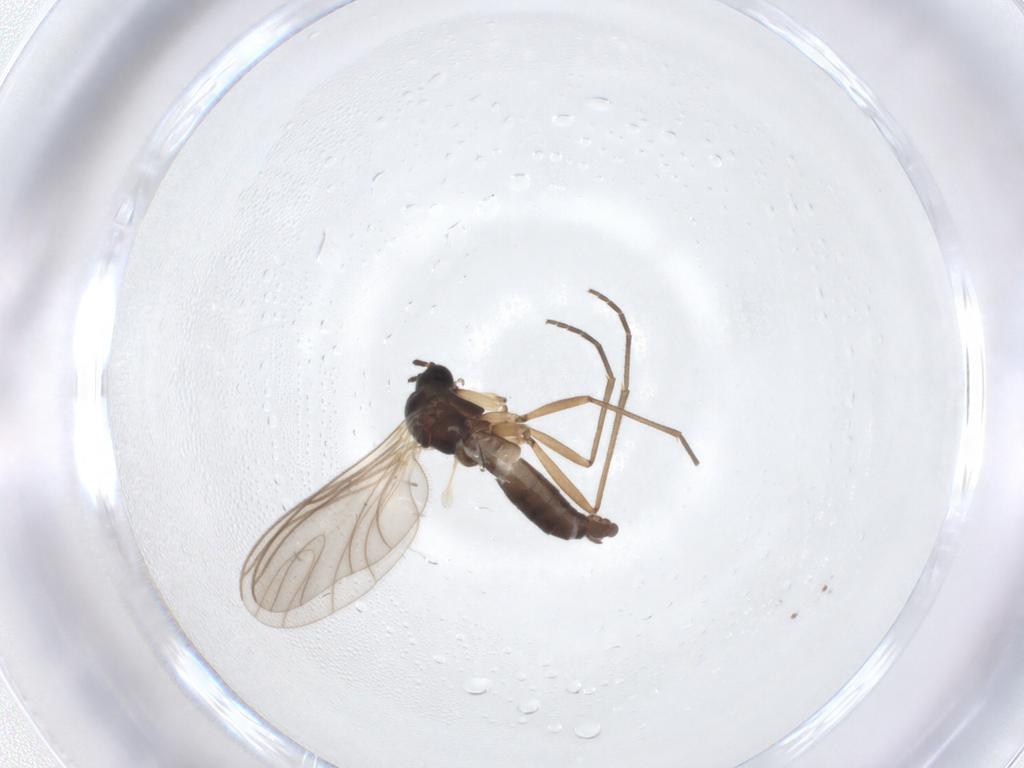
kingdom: Animalia
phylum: Arthropoda
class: Insecta
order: Diptera
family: Sciaridae
